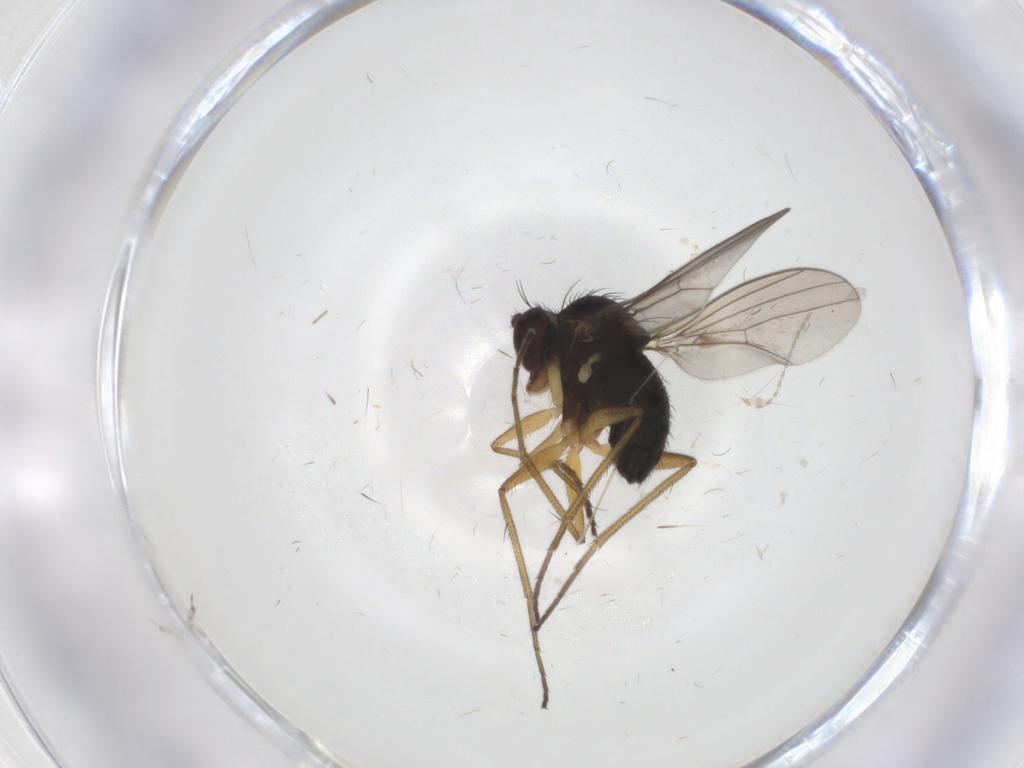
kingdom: Animalia
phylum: Arthropoda
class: Insecta
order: Diptera
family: Dolichopodidae
